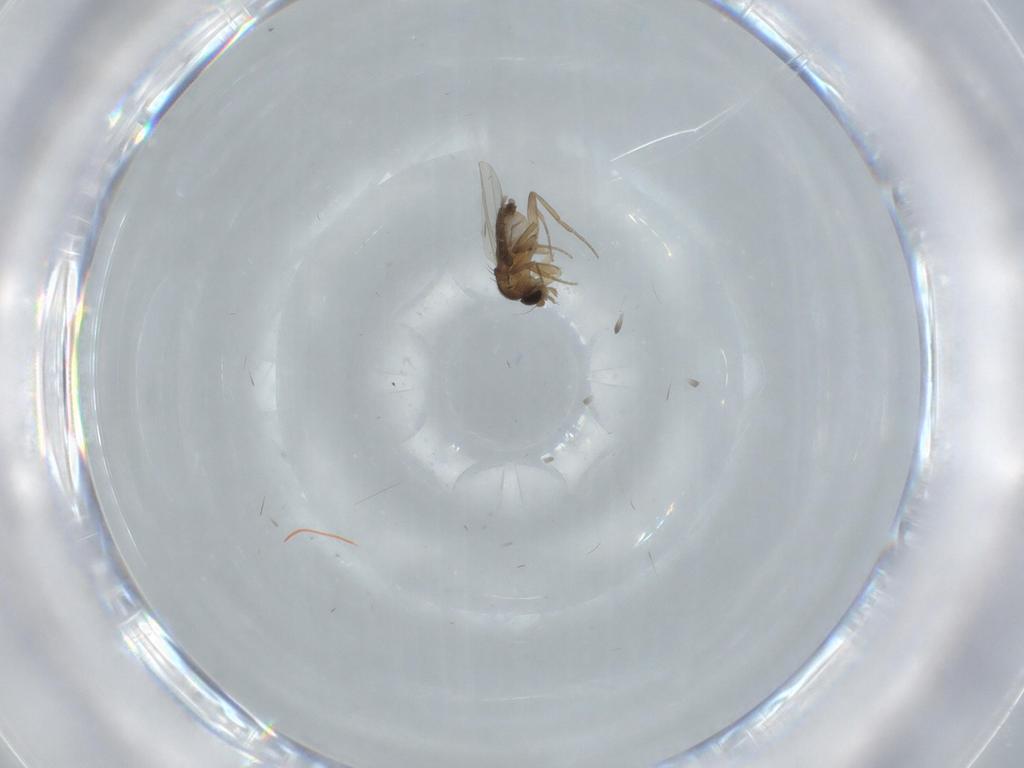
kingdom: Animalia
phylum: Arthropoda
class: Insecta
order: Diptera
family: Phoridae
